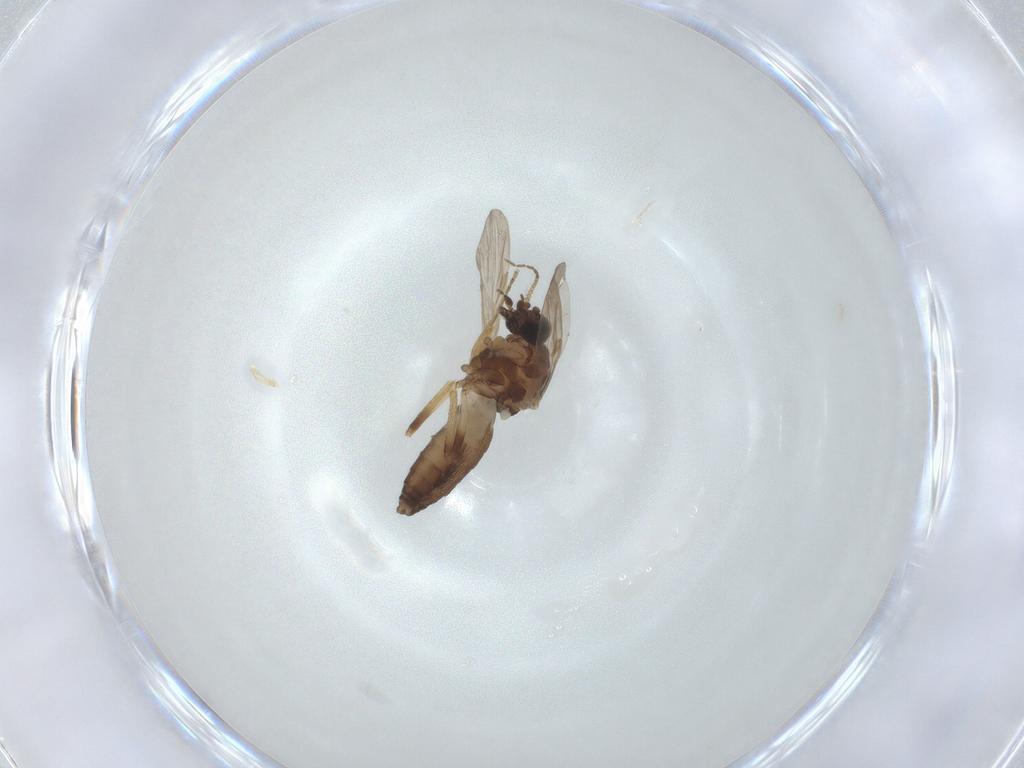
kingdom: Animalia
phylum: Arthropoda
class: Insecta
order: Diptera
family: Ceratopogonidae
